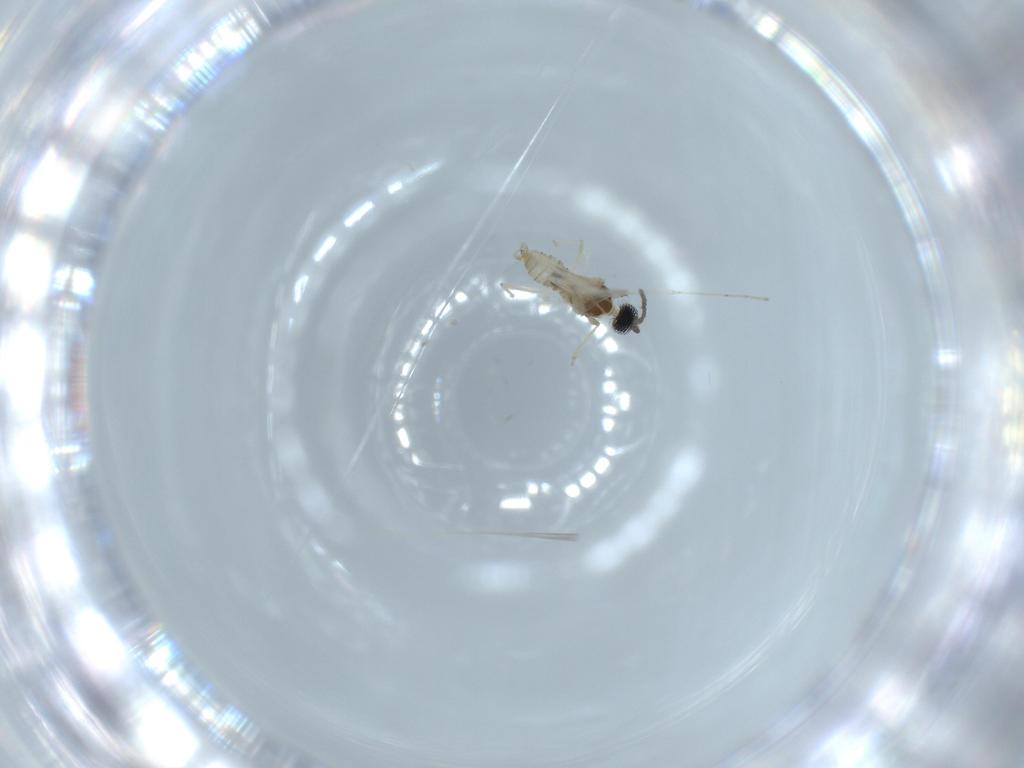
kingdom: Animalia
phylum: Arthropoda
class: Insecta
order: Diptera
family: Cecidomyiidae
